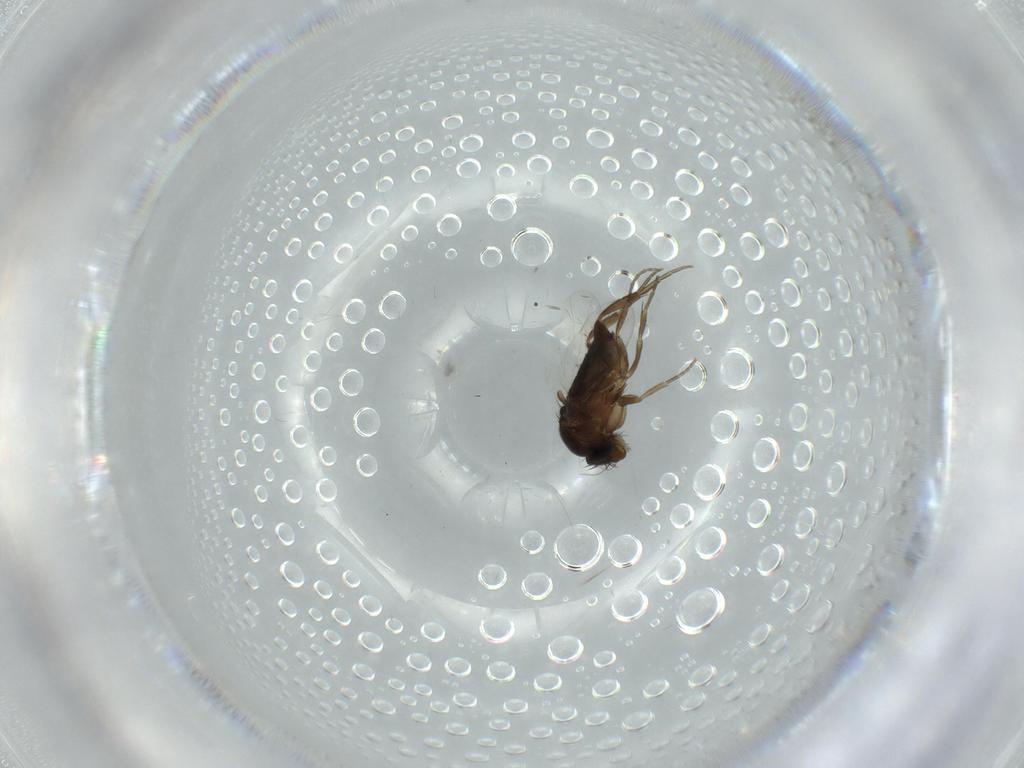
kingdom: Animalia
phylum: Arthropoda
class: Insecta
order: Diptera
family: Phoridae
